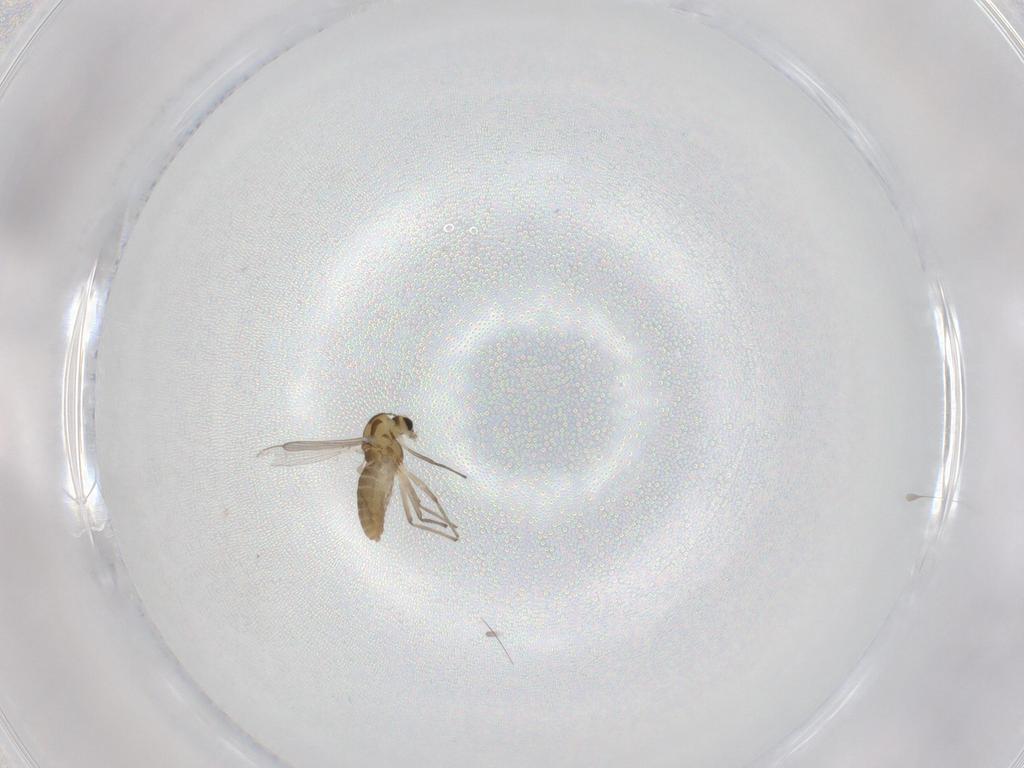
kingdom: Animalia
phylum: Arthropoda
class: Insecta
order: Diptera
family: Chironomidae
